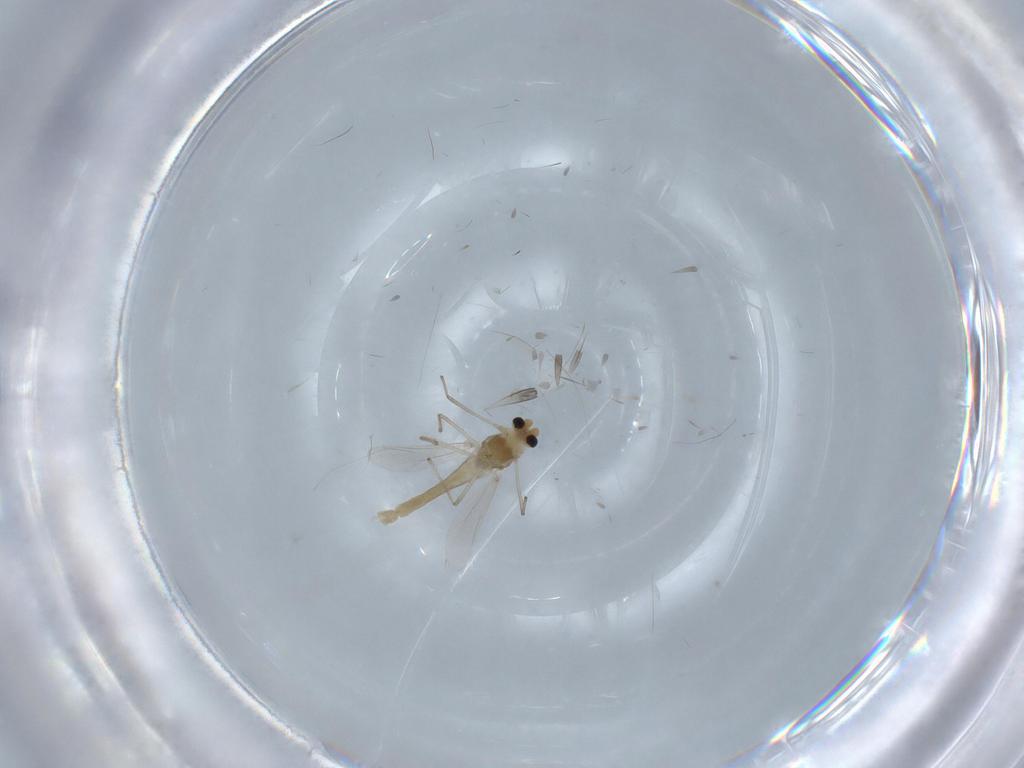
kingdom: Animalia
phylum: Arthropoda
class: Insecta
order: Diptera
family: Chironomidae
